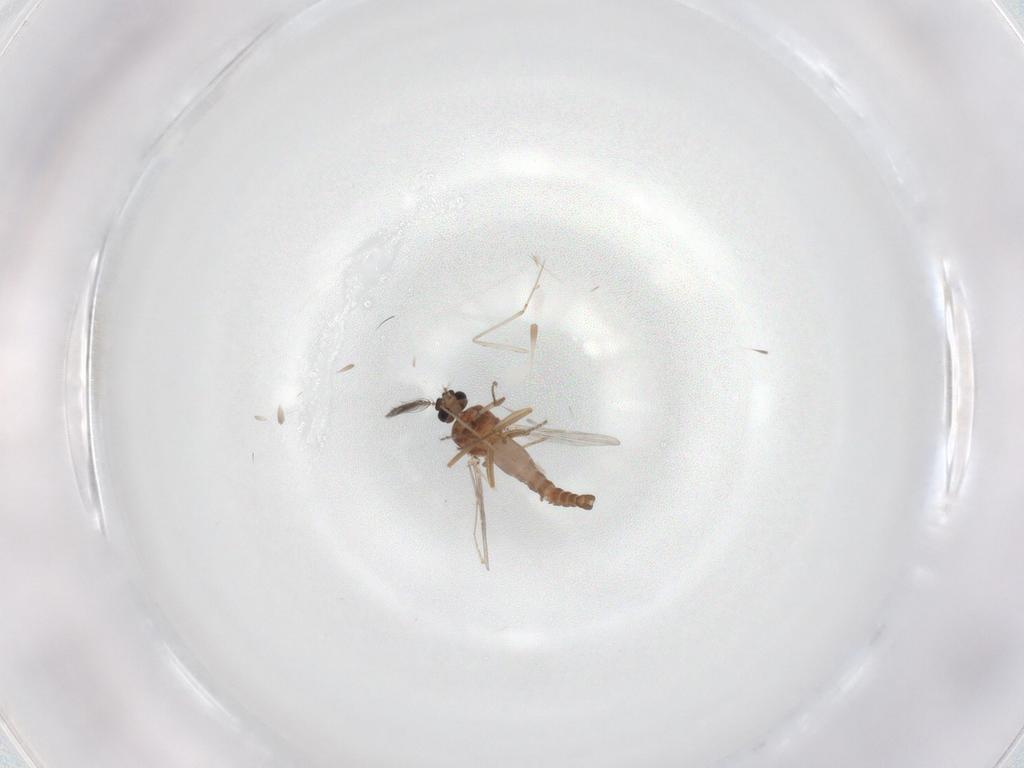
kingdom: Animalia
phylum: Arthropoda
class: Insecta
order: Diptera
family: Ceratopogonidae
